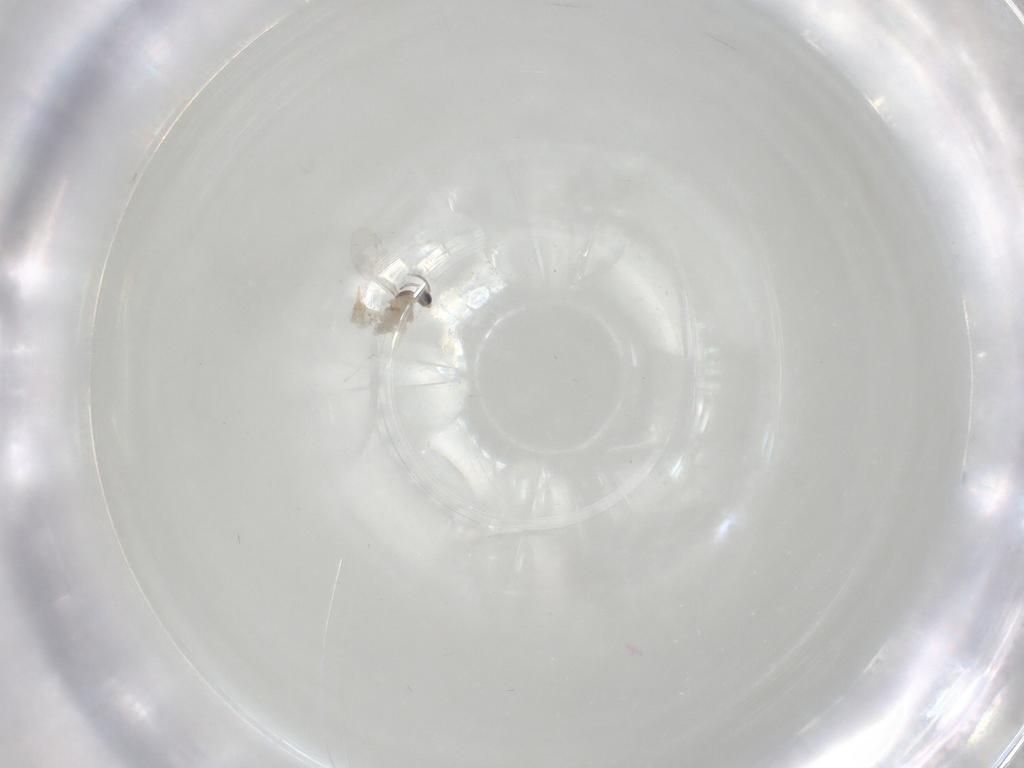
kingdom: Animalia
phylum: Arthropoda
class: Insecta
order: Diptera
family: Cecidomyiidae
